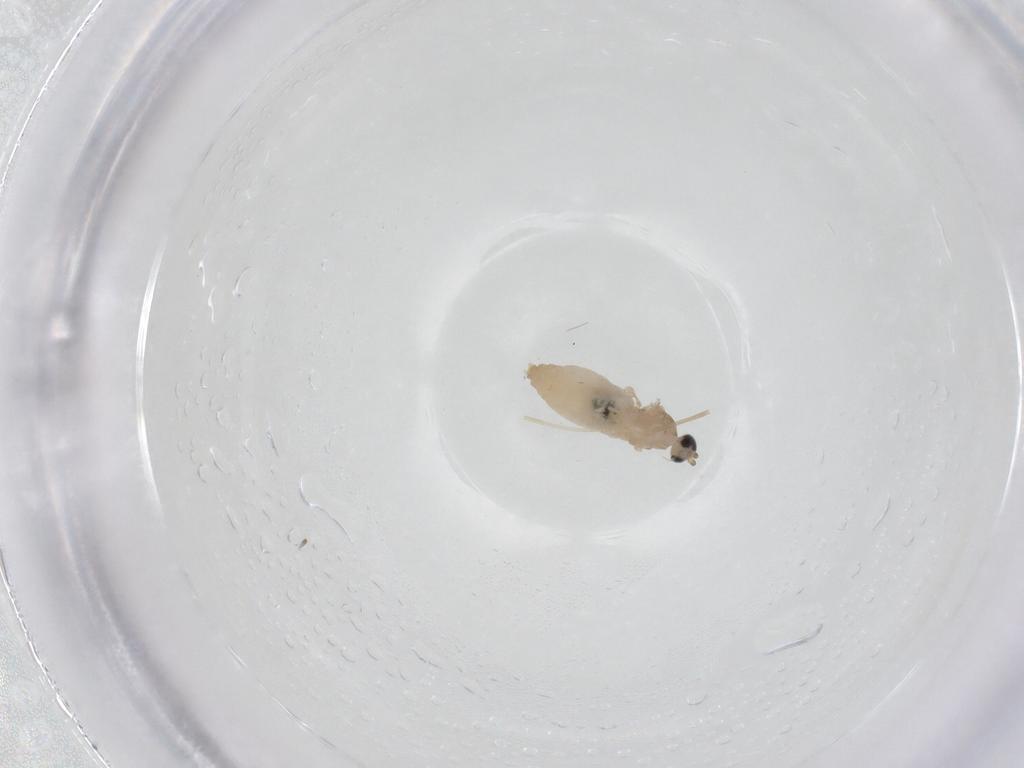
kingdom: Animalia
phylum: Arthropoda
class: Insecta
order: Diptera
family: Cecidomyiidae
